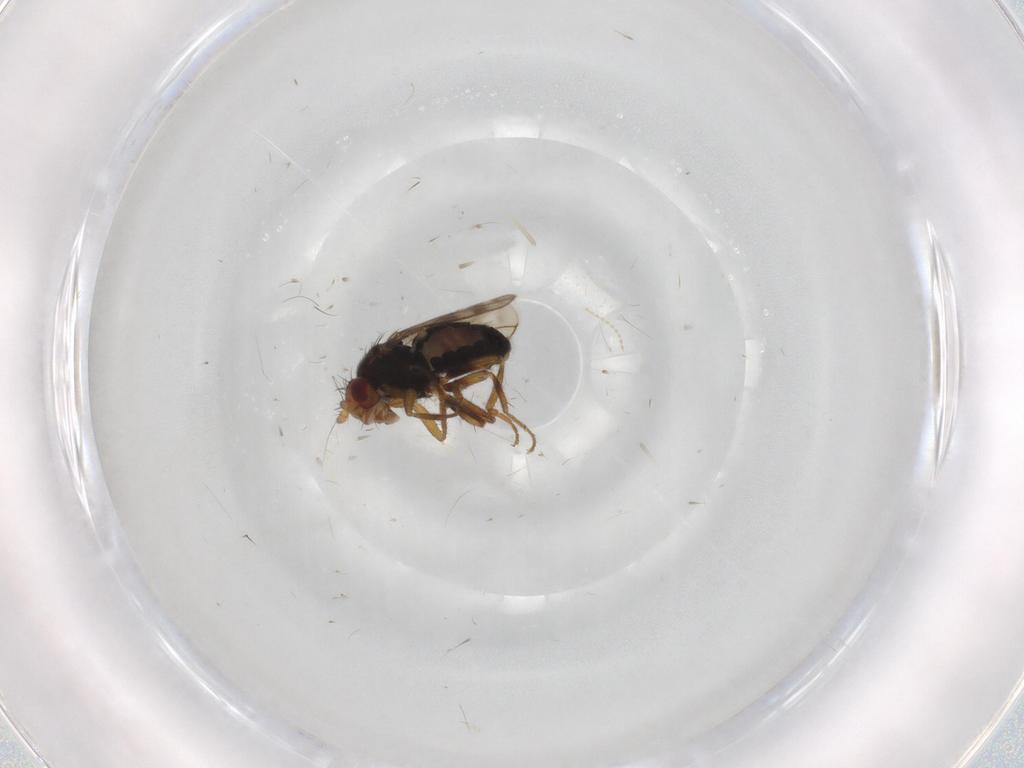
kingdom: Animalia
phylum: Arthropoda
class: Insecta
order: Diptera
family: Sphaeroceridae
